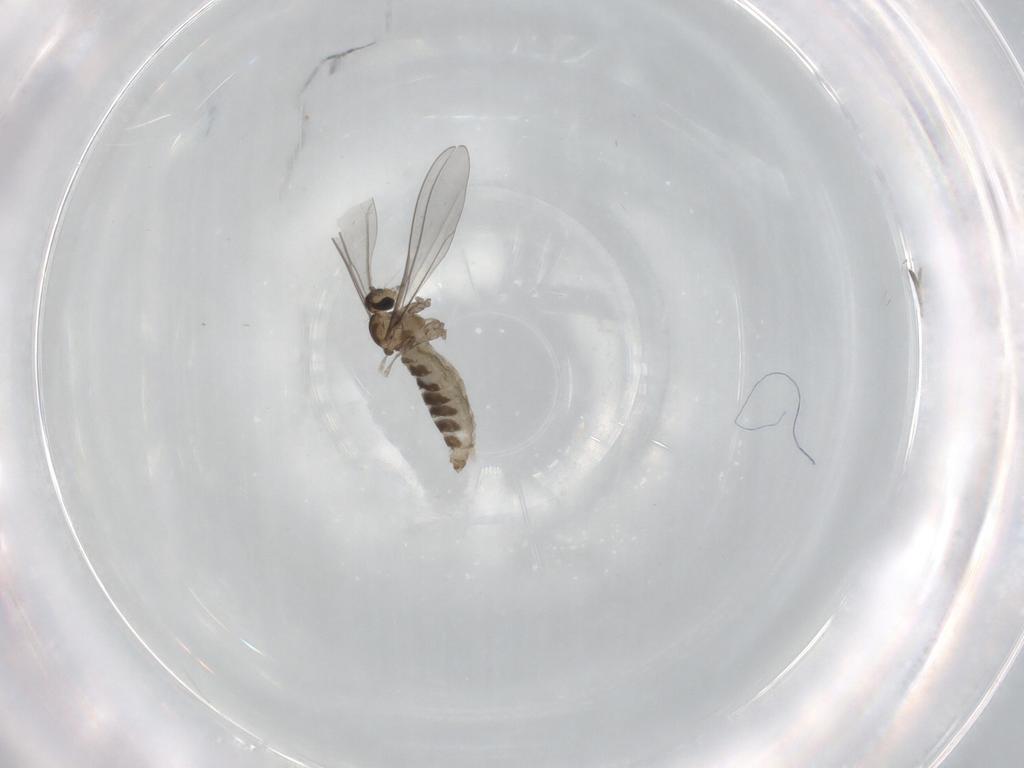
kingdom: Animalia
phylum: Arthropoda
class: Insecta
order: Diptera
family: Cecidomyiidae
